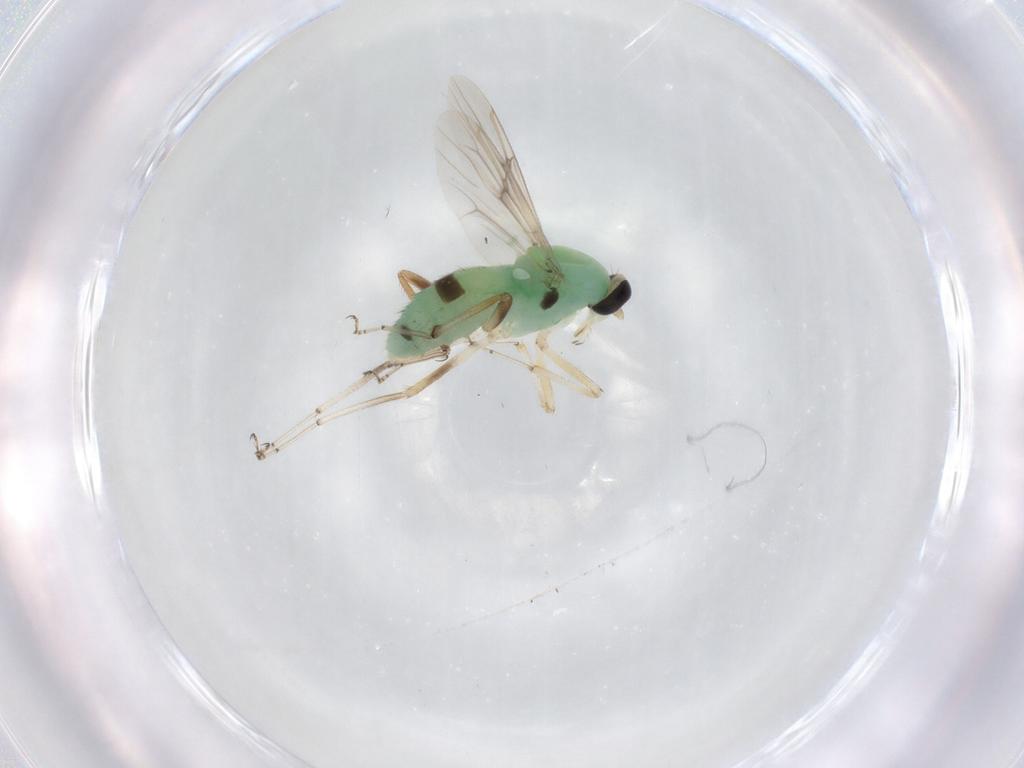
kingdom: Animalia
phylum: Arthropoda
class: Insecta
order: Diptera
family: Ceratopogonidae
